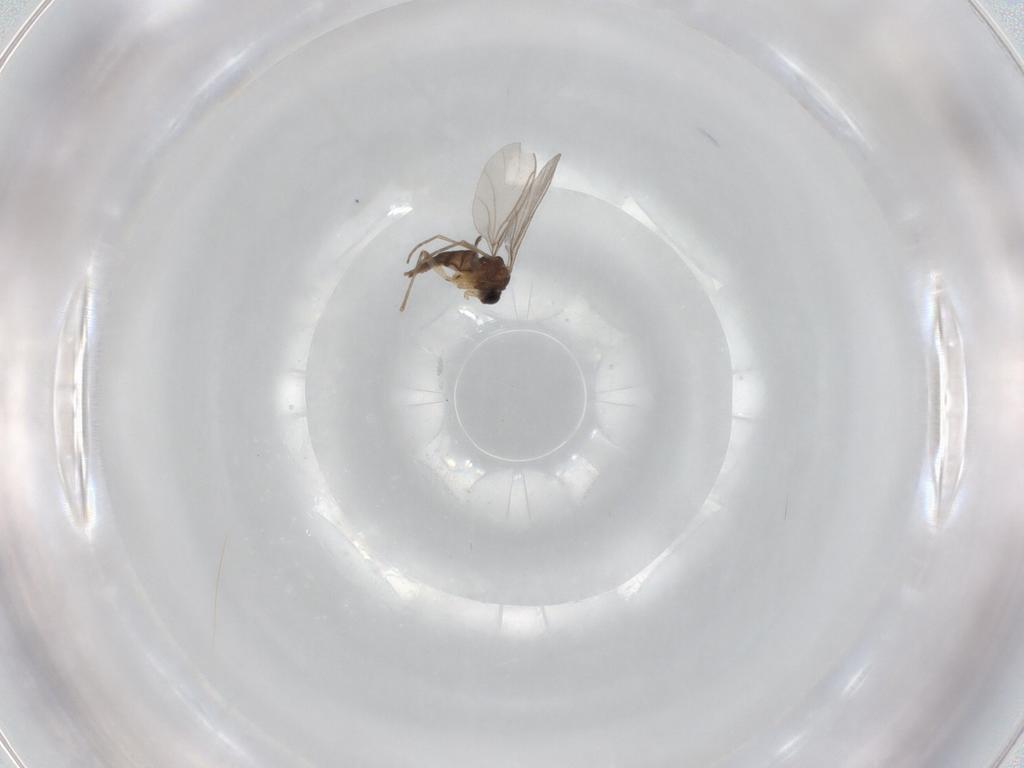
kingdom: Animalia
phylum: Arthropoda
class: Insecta
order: Diptera
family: Sciaridae
